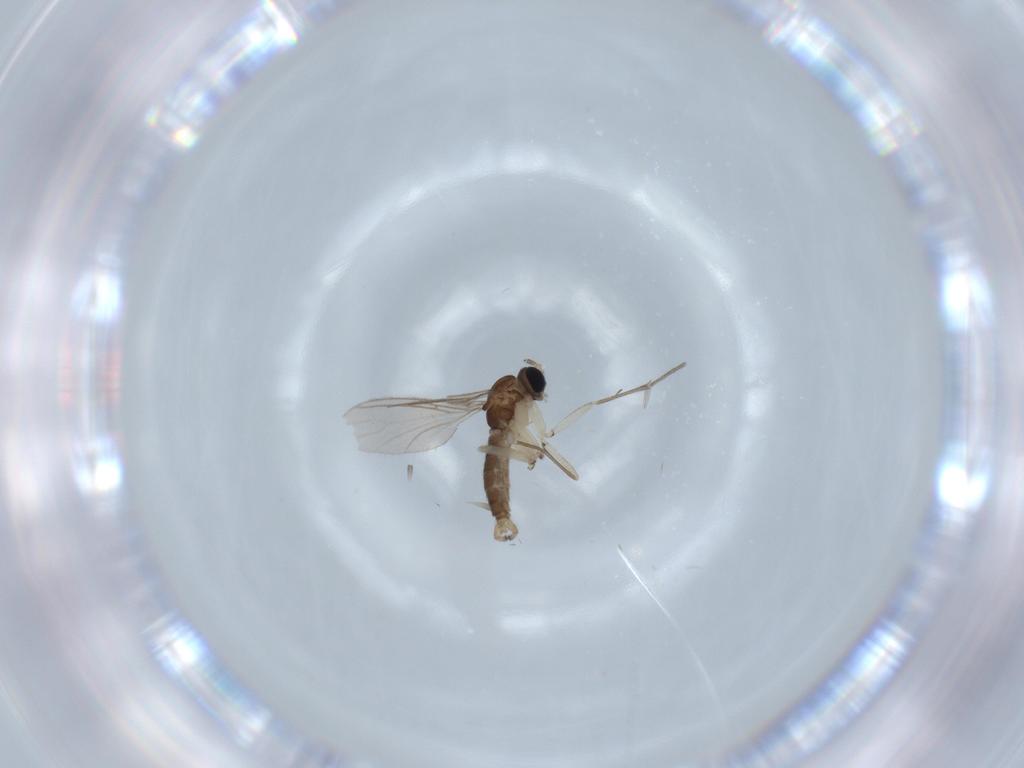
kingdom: Animalia
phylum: Arthropoda
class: Insecta
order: Diptera
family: Sciaridae
